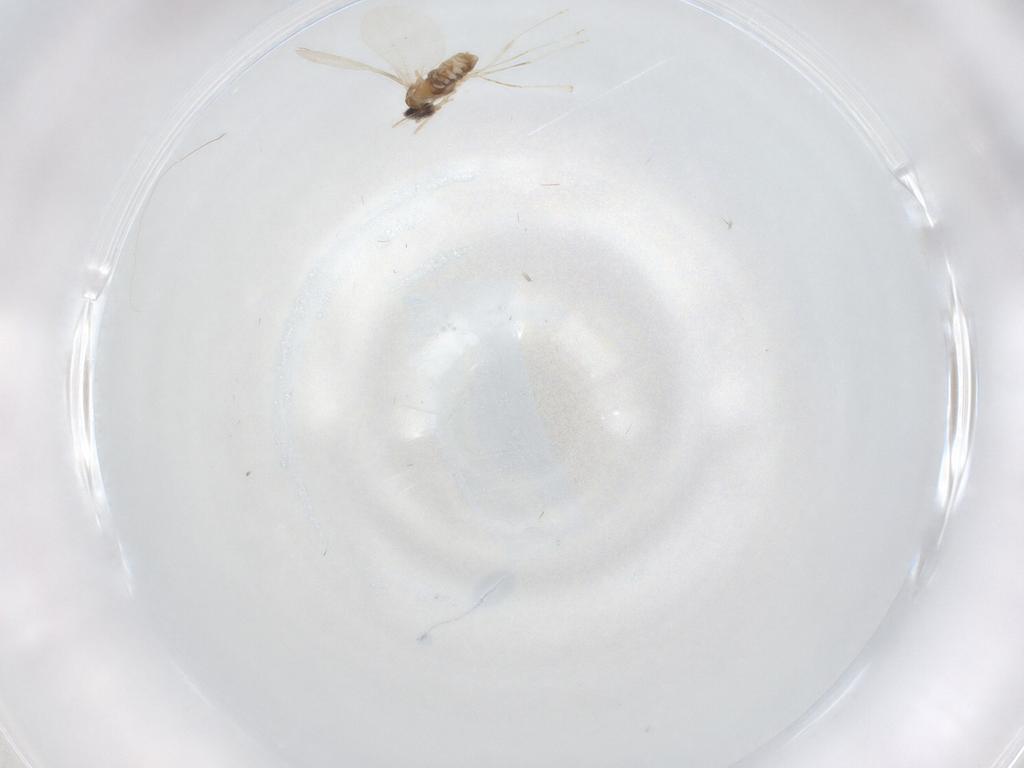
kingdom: Animalia
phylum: Arthropoda
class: Insecta
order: Diptera
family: Cecidomyiidae
